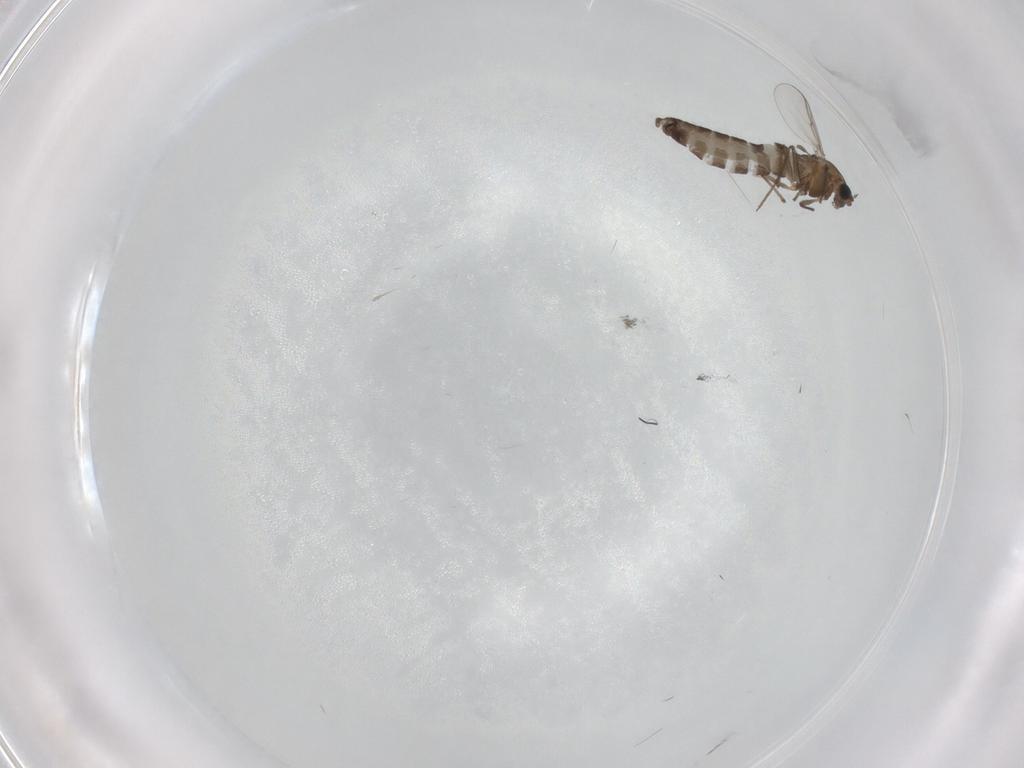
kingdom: Animalia
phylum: Arthropoda
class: Insecta
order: Diptera
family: Chironomidae
